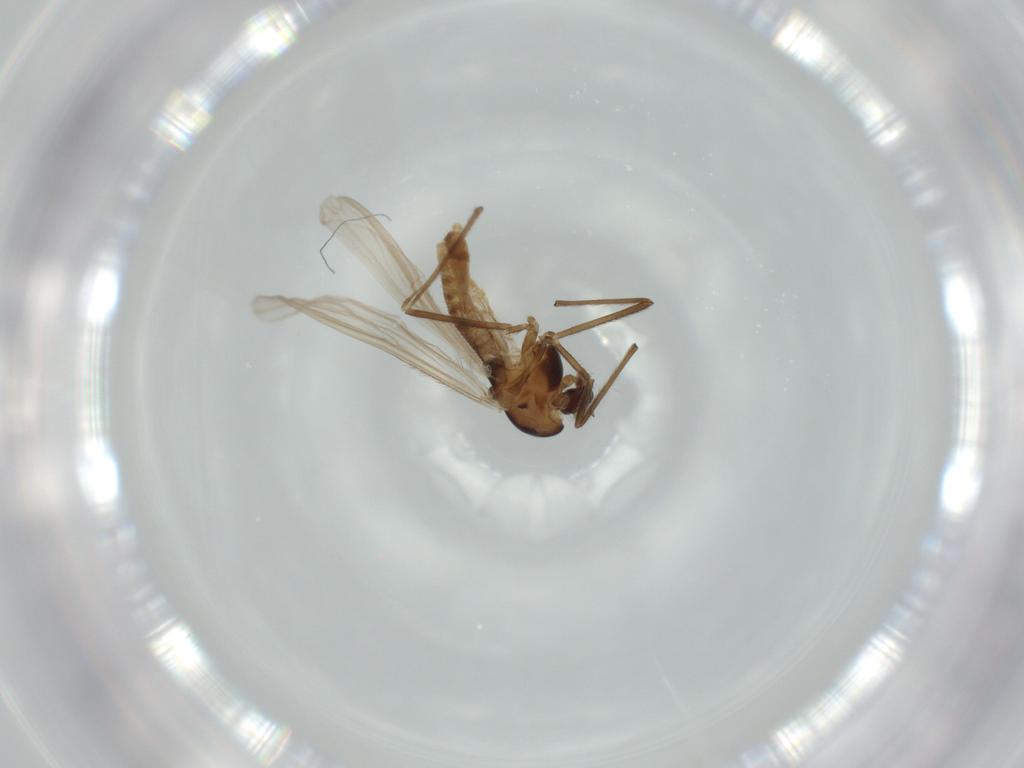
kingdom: Animalia
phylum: Arthropoda
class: Insecta
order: Diptera
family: Chironomidae
